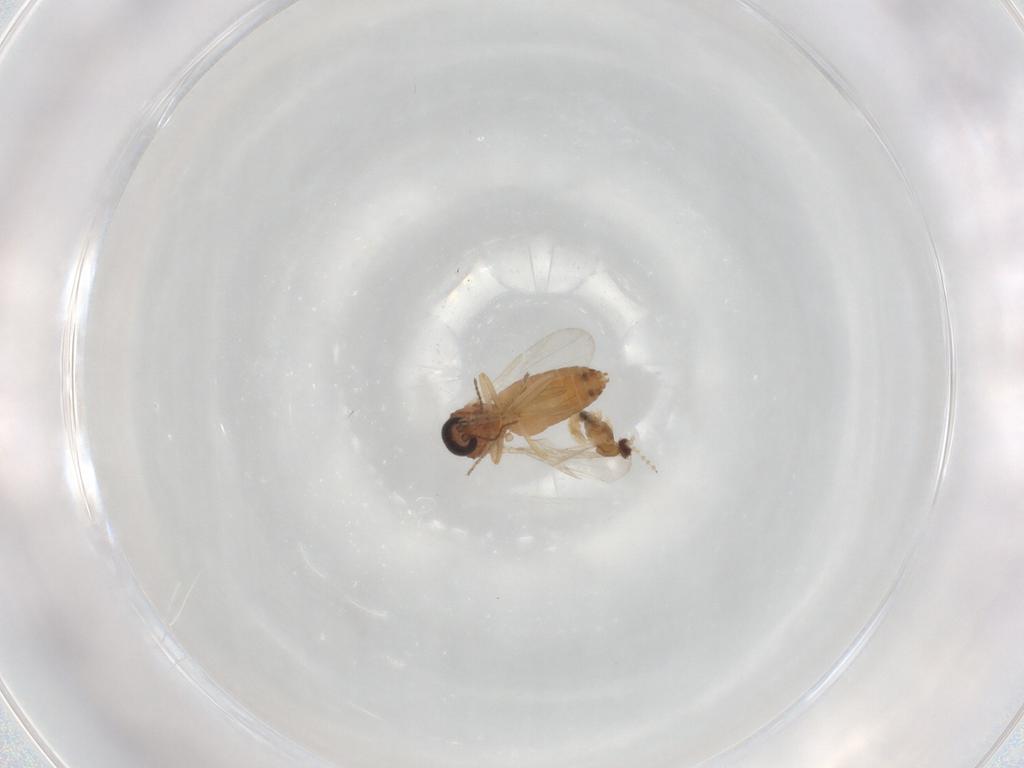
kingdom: Animalia
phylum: Arthropoda
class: Insecta
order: Diptera
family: Ceratopogonidae
